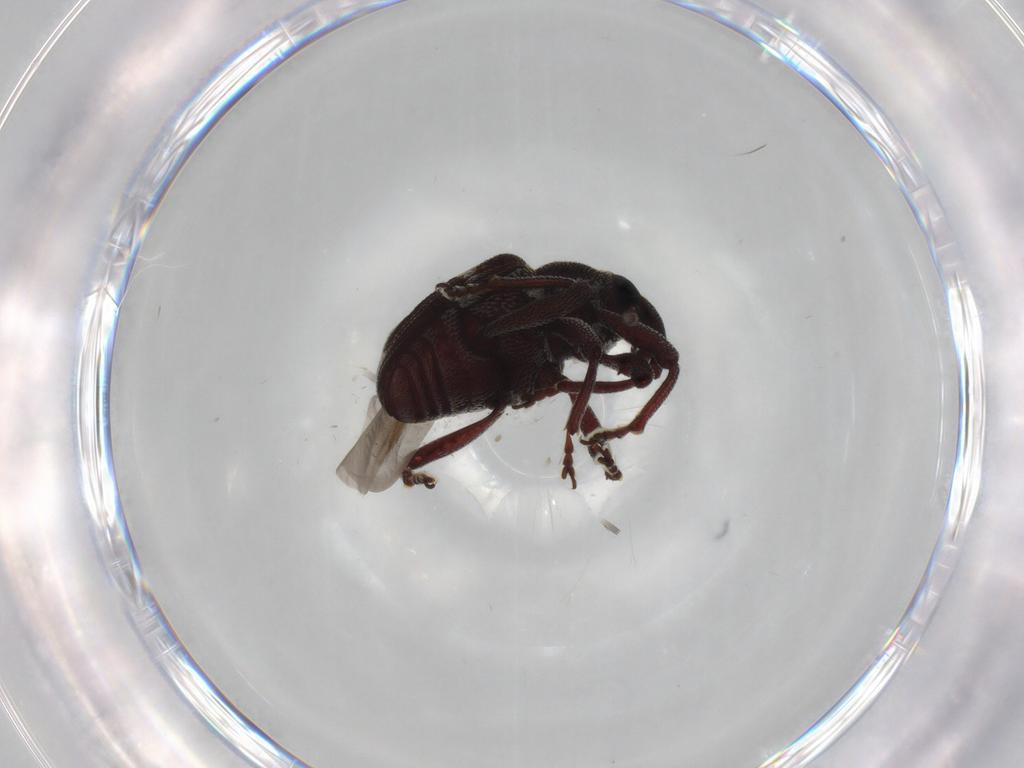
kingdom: Animalia
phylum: Arthropoda
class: Insecta
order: Coleoptera
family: Curculionidae
